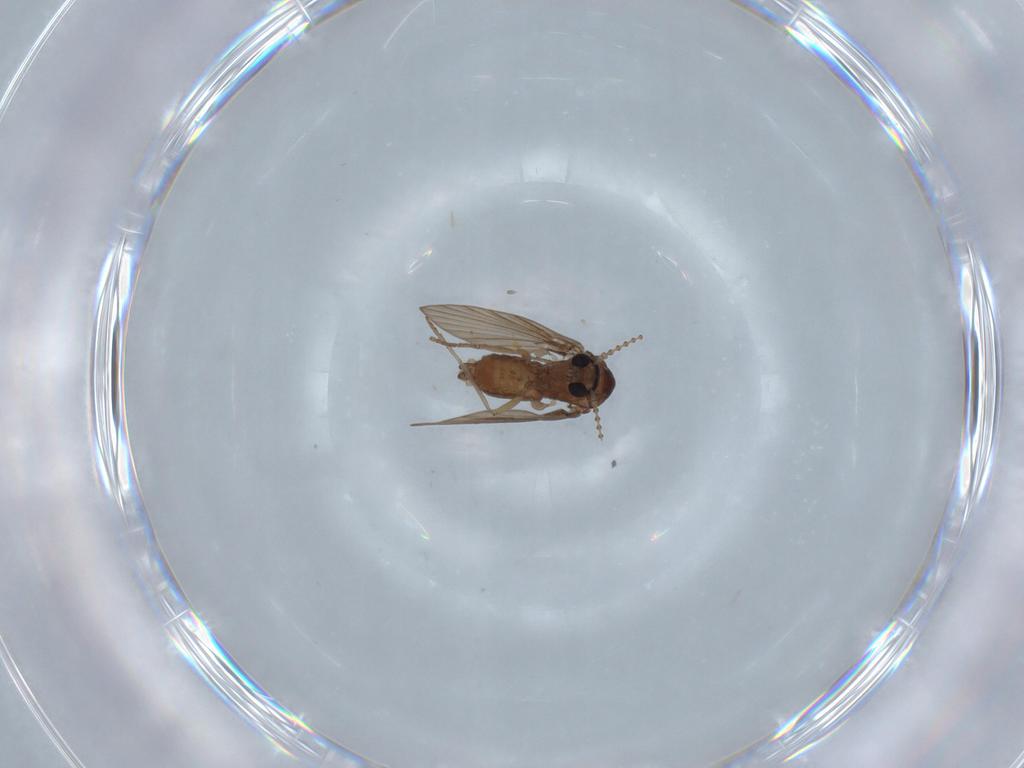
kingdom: Animalia
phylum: Arthropoda
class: Insecta
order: Diptera
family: Psychodidae
